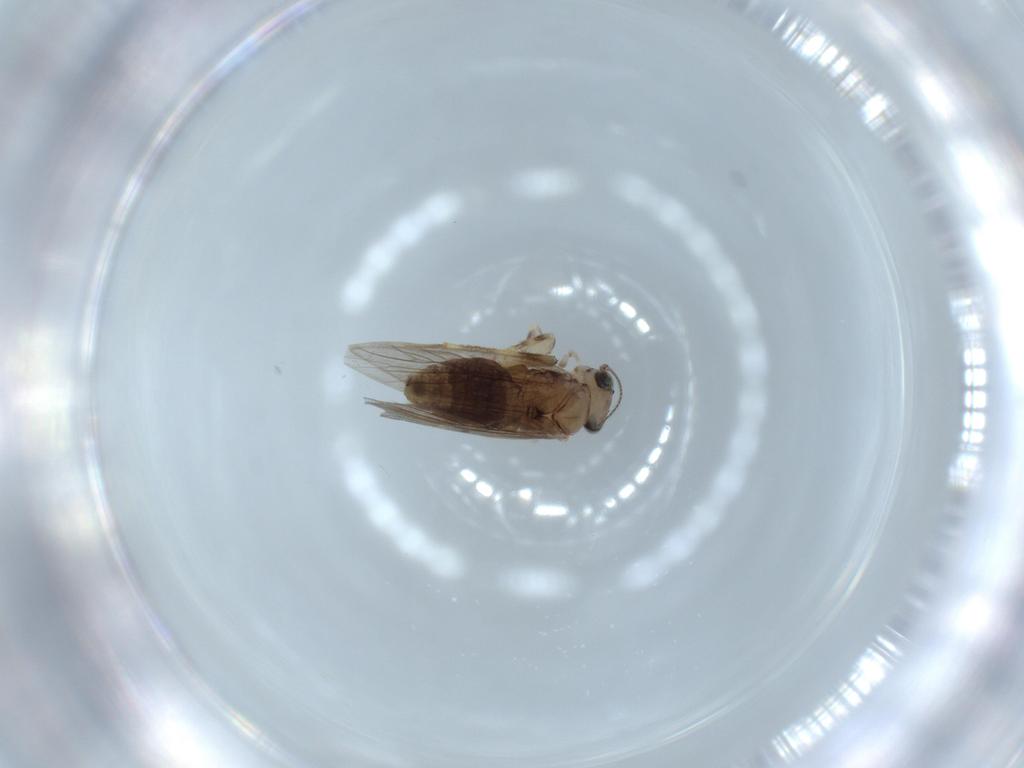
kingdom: Animalia
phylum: Arthropoda
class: Insecta
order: Psocodea
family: Lepidopsocidae
